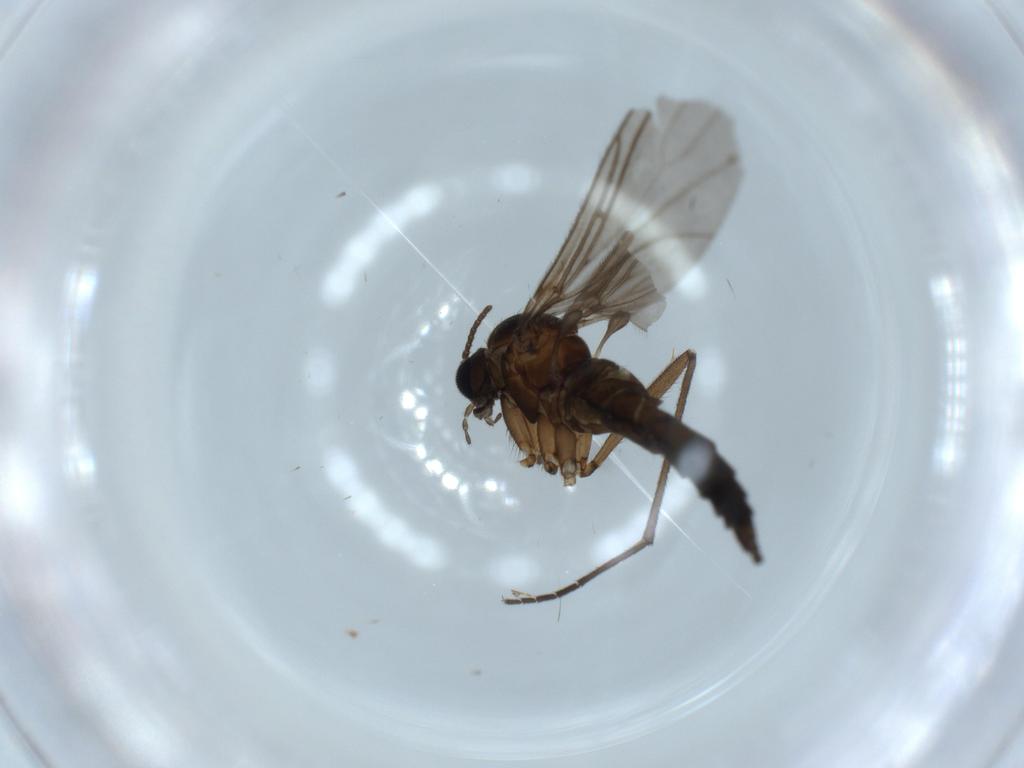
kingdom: Animalia
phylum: Arthropoda
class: Insecta
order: Diptera
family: Sciaridae
